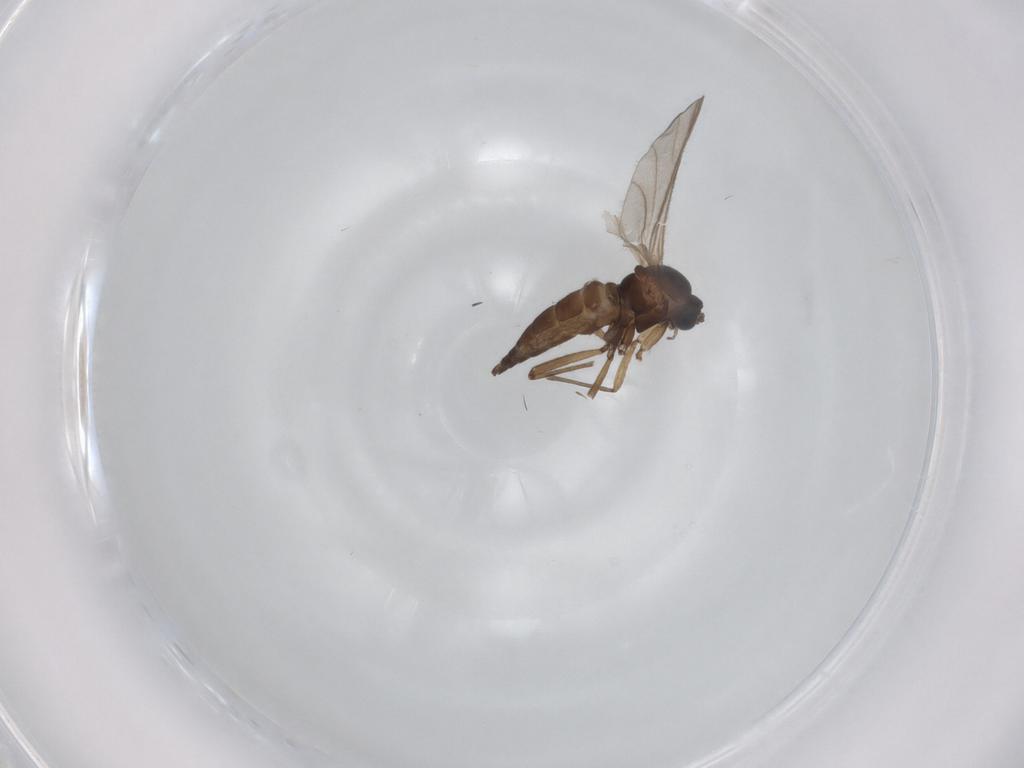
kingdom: Animalia
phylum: Arthropoda
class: Insecta
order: Diptera
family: Sciaridae
